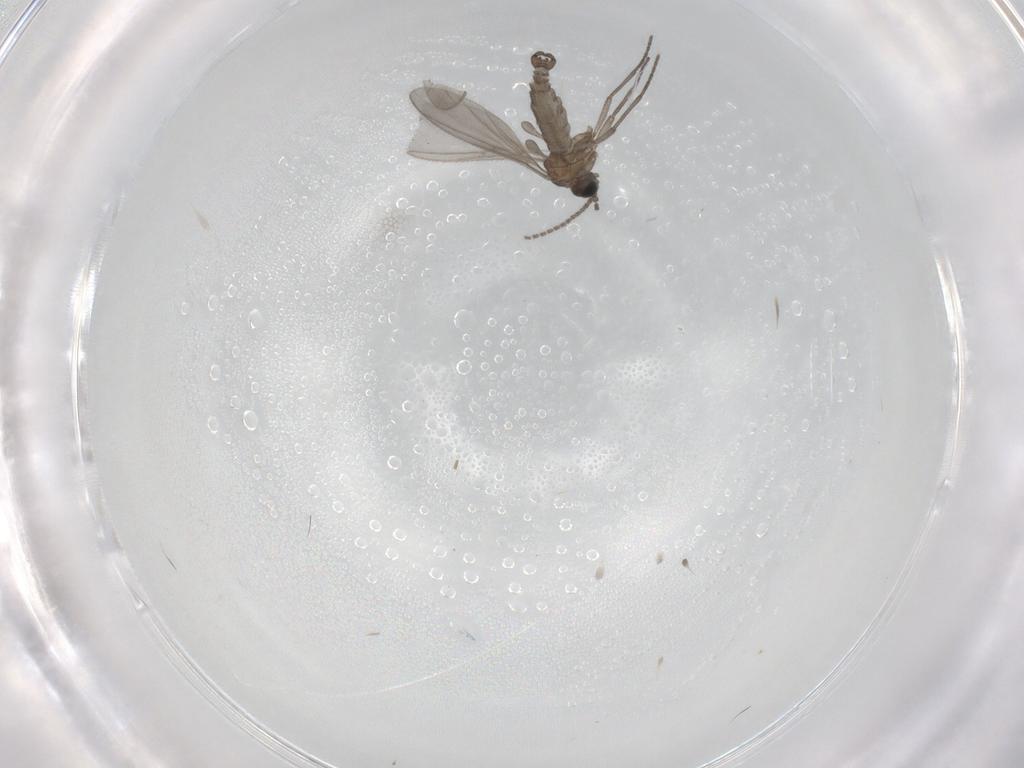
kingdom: Animalia
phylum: Arthropoda
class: Insecta
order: Diptera
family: Sciaridae
